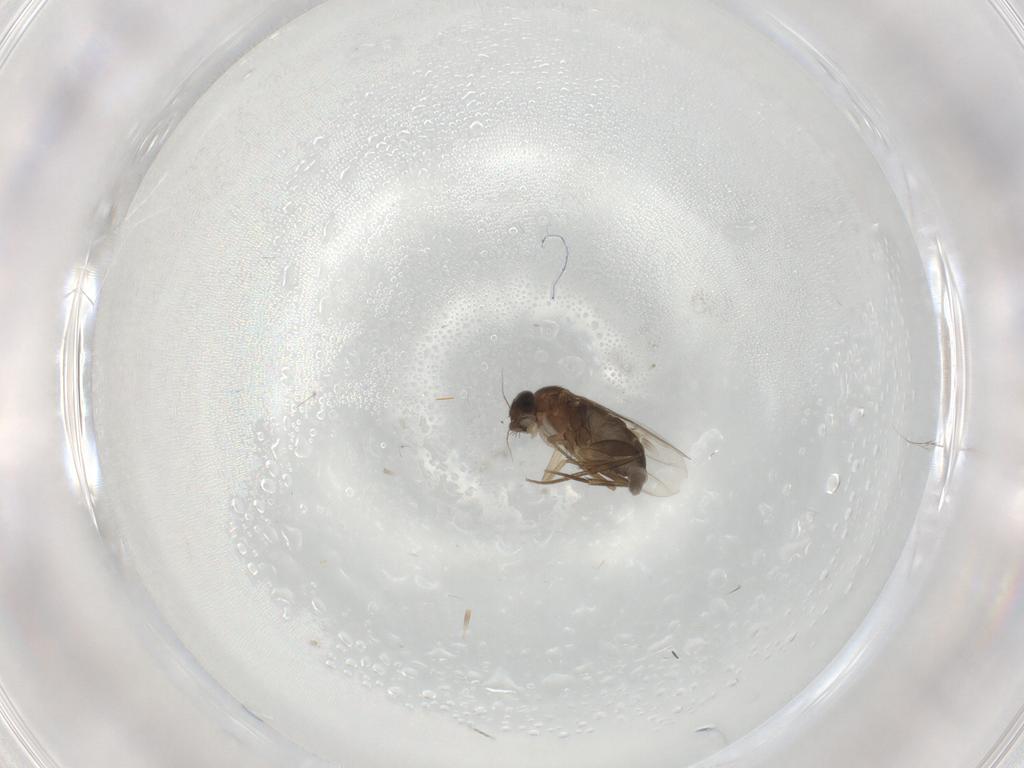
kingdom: Animalia
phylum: Arthropoda
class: Insecta
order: Diptera
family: Phoridae
